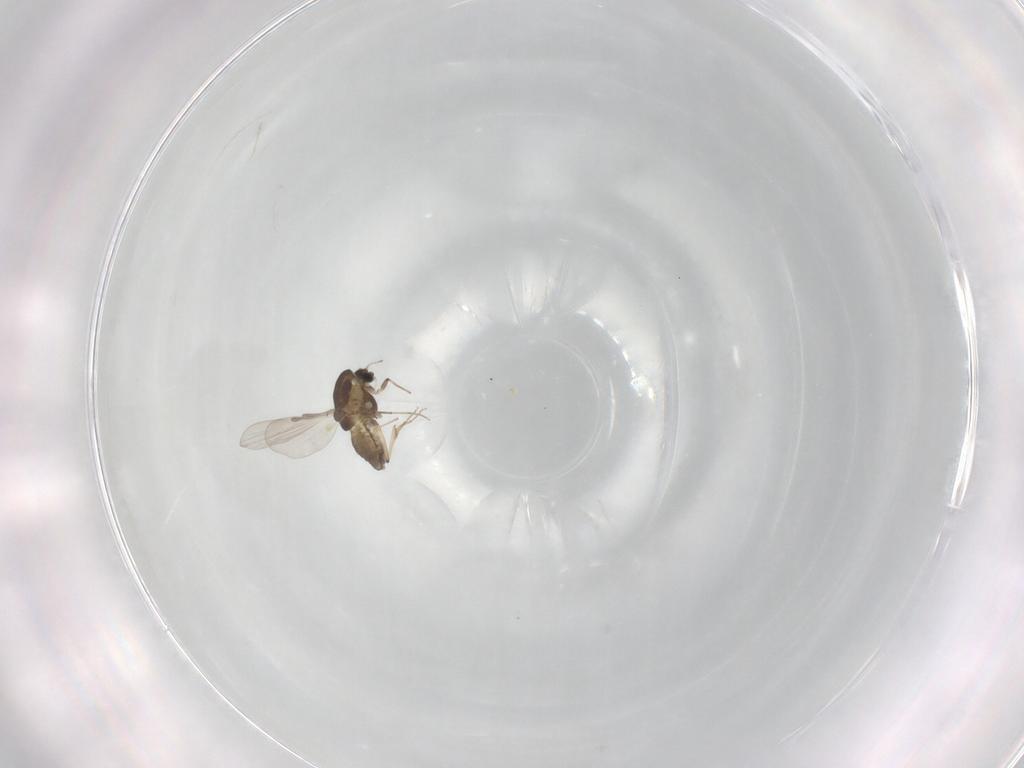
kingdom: Animalia
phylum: Arthropoda
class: Insecta
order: Diptera
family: Chironomidae
